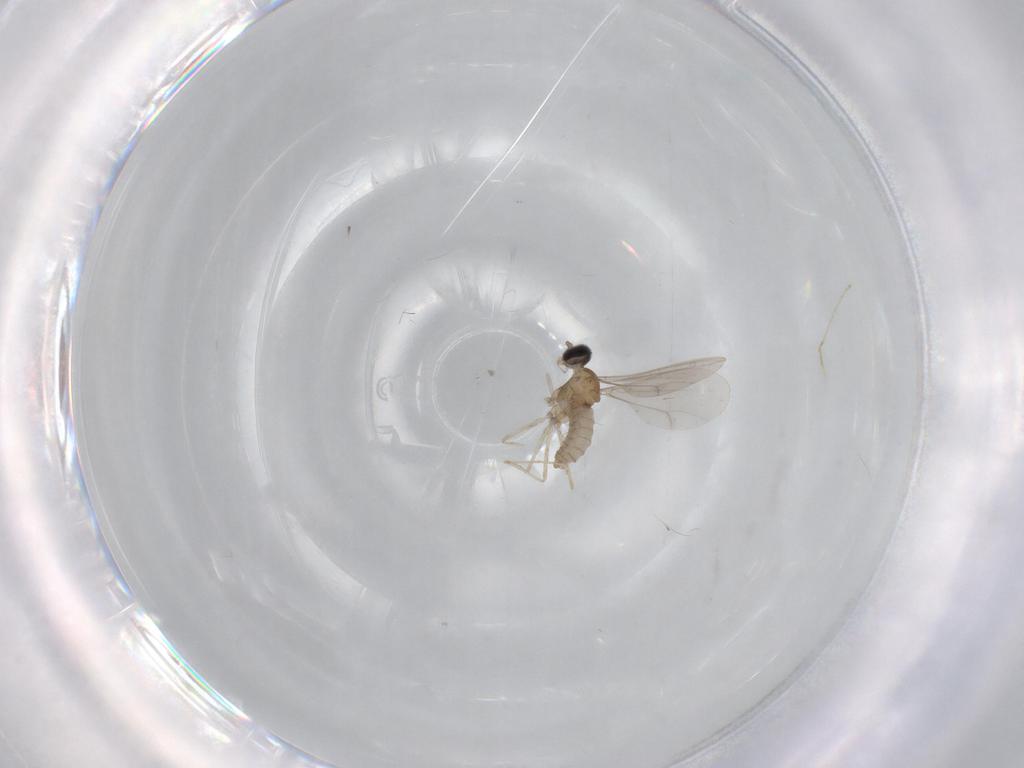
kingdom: Animalia
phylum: Arthropoda
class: Insecta
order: Diptera
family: Cecidomyiidae
